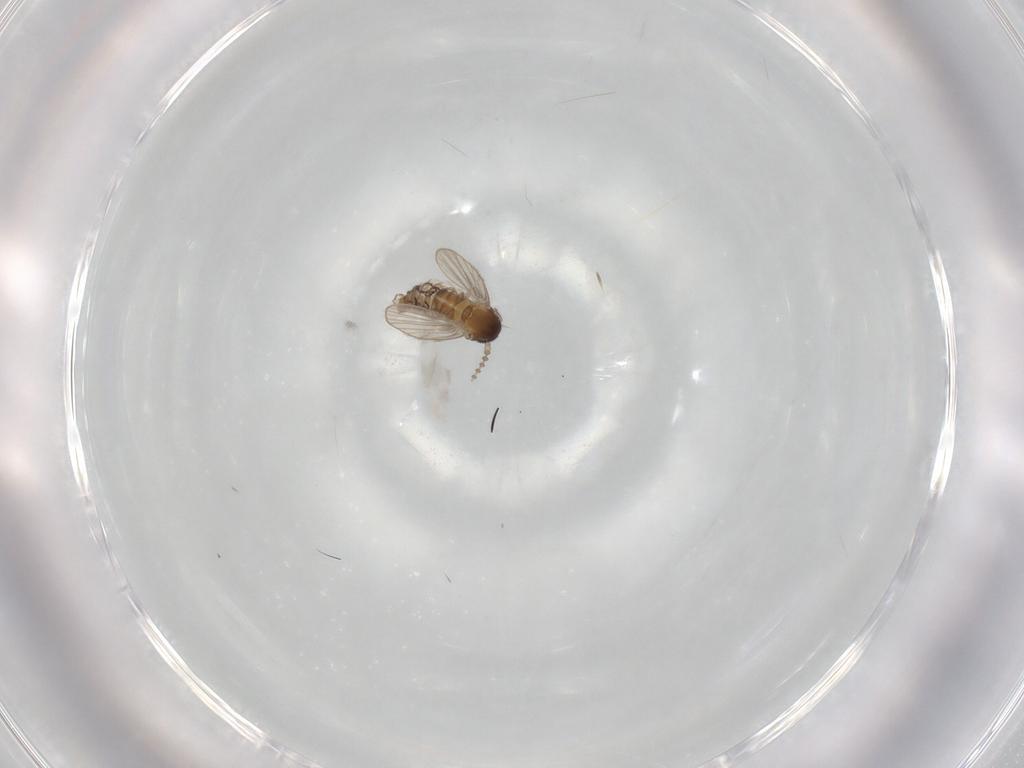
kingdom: Animalia
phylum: Arthropoda
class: Insecta
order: Diptera
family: Psychodidae
